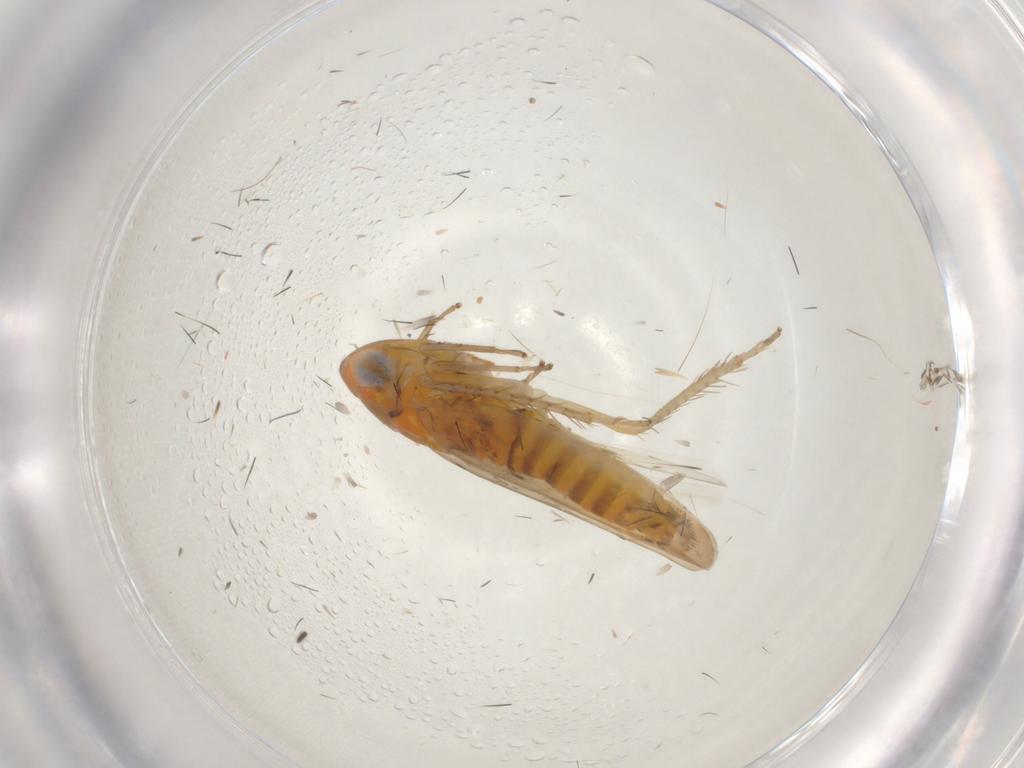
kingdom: Animalia
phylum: Arthropoda
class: Insecta
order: Hemiptera
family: Cicadellidae
